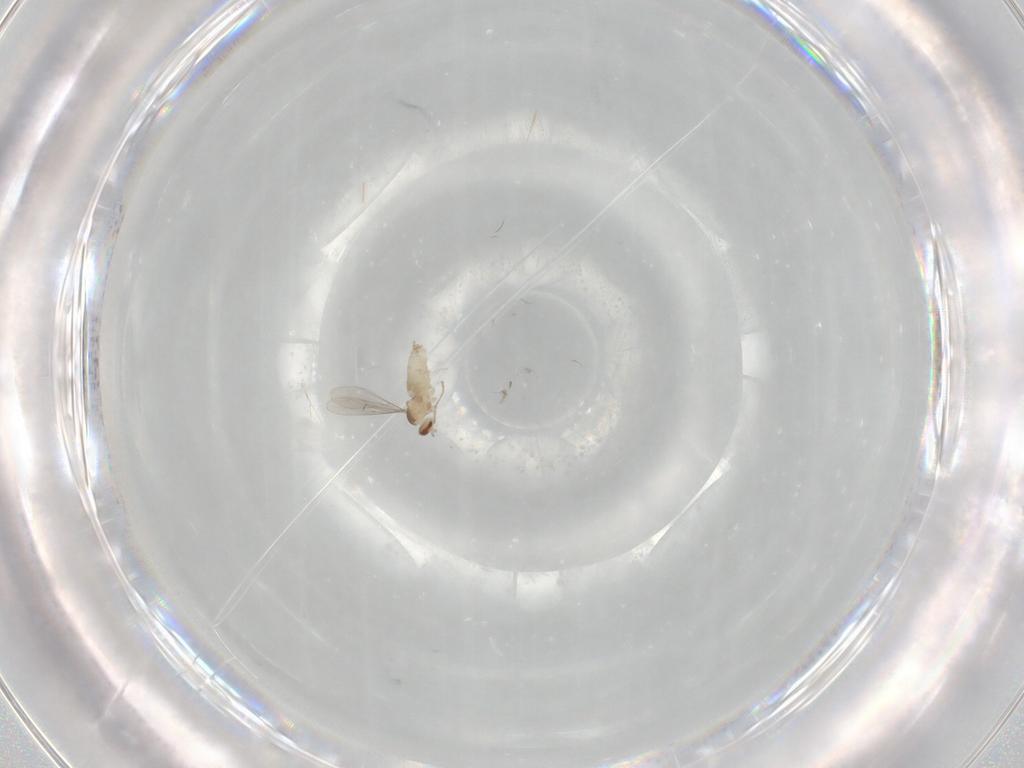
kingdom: Animalia
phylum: Arthropoda
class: Insecta
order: Diptera
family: Cecidomyiidae
